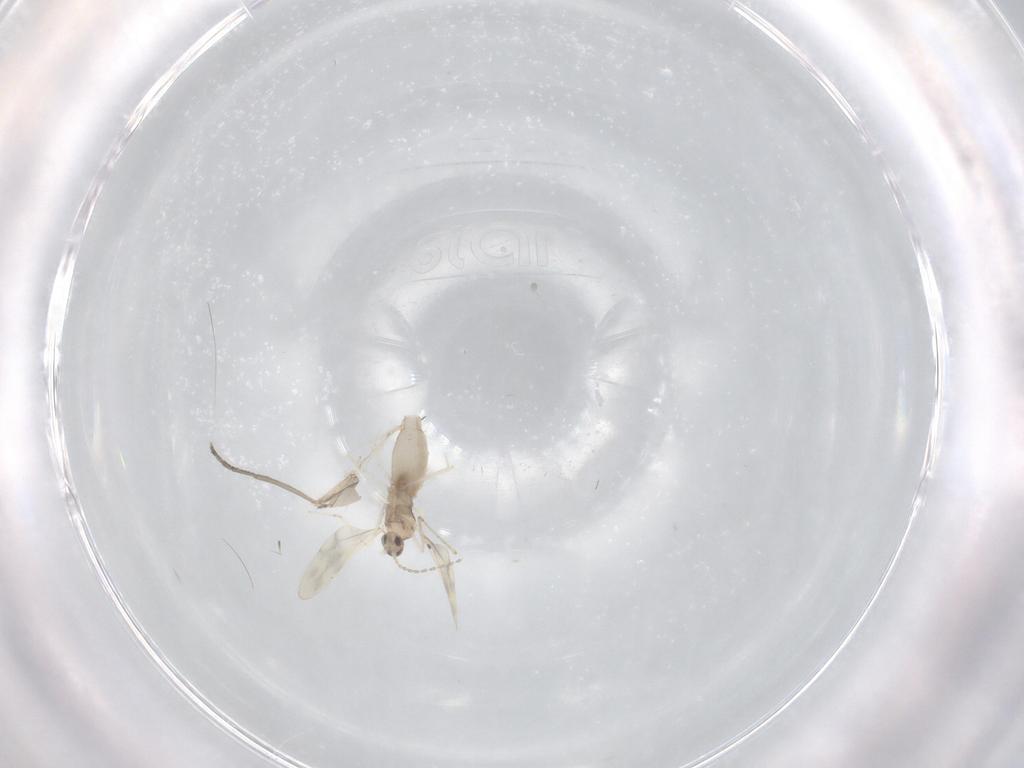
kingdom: Animalia
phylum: Arthropoda
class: Insecta
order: Diptera
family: Cecidomyiidae
